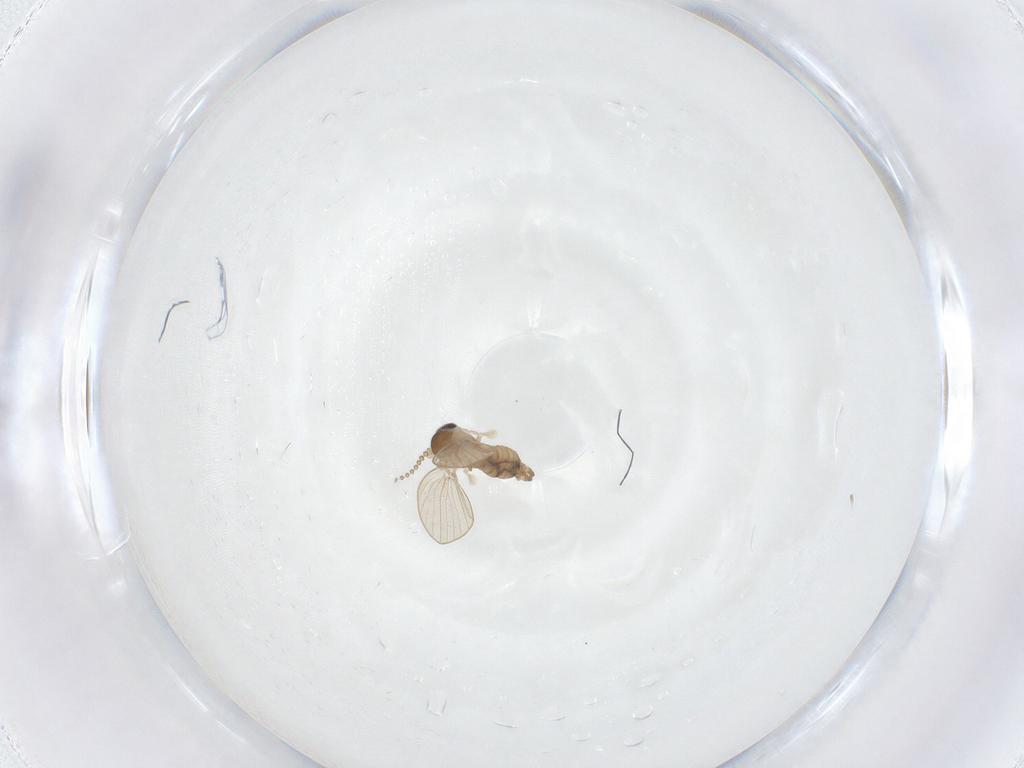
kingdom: Animalia
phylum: Arthropoda
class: Insecta
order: Diptera
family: Psychodidae
